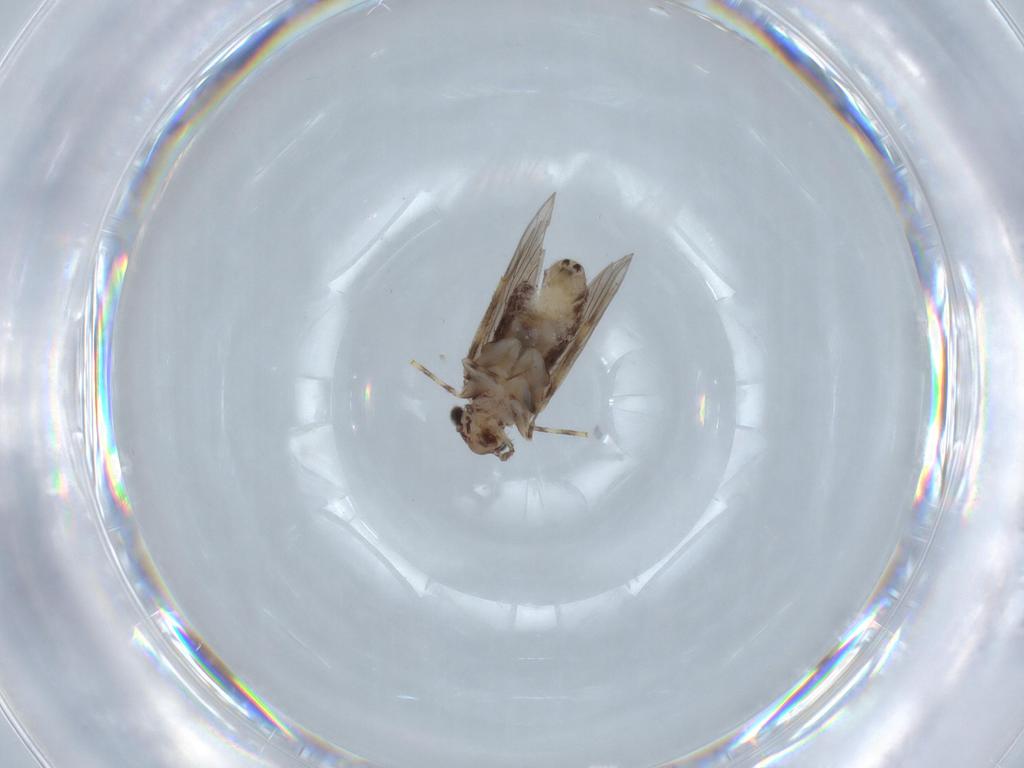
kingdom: Animalia
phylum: Arthropoda
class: Insecta
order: Psocodea
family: Lepidopsocidae
